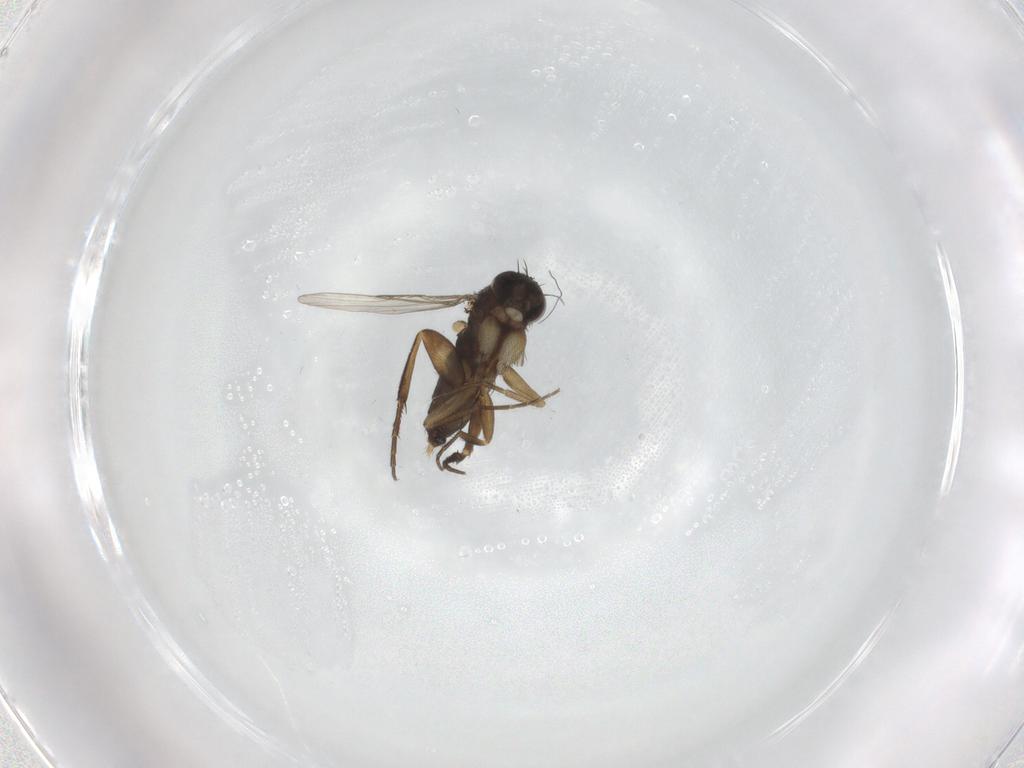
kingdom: Animalia
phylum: Arthropoda
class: Insecta
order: Diptera
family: Phoridae
